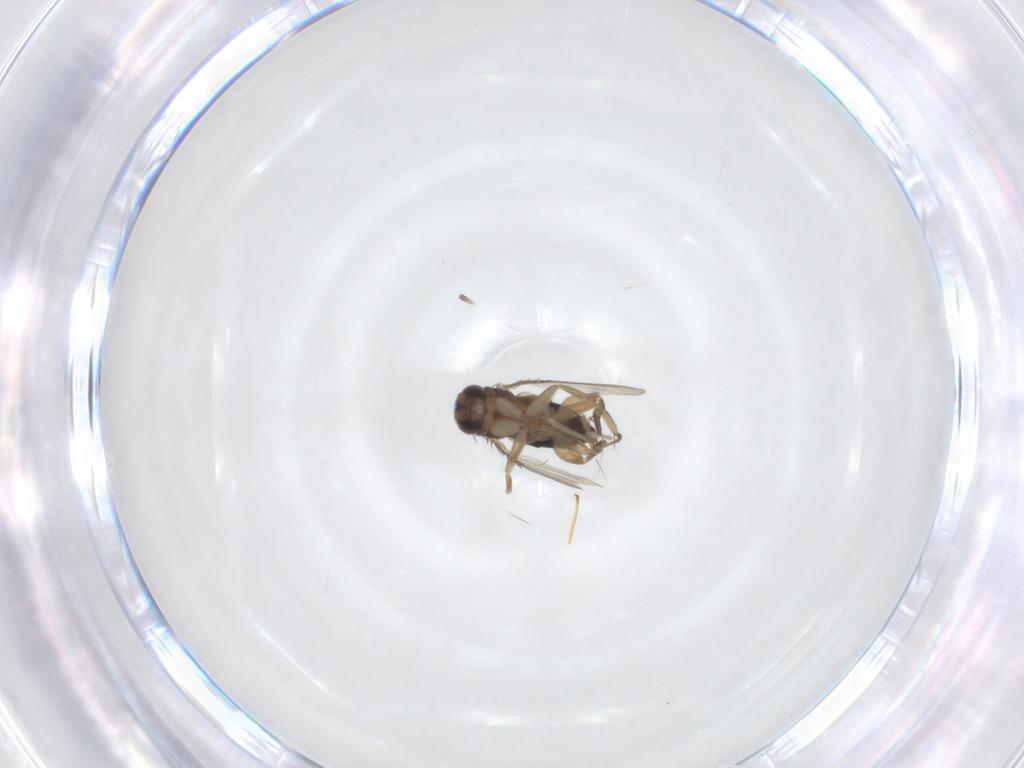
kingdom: Animalia
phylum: Arthropoda
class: Insecta
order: Diptera
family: Phoridae
